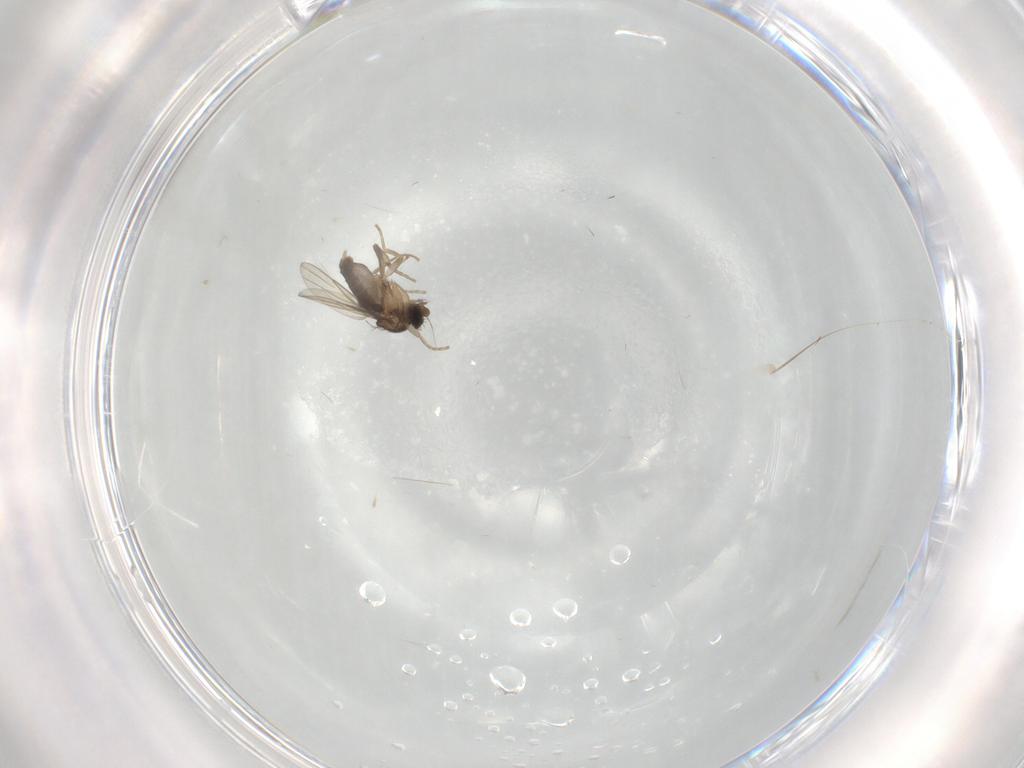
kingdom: Animalia
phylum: Arthropoda
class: Insecta
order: Diptera
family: Phoridae
